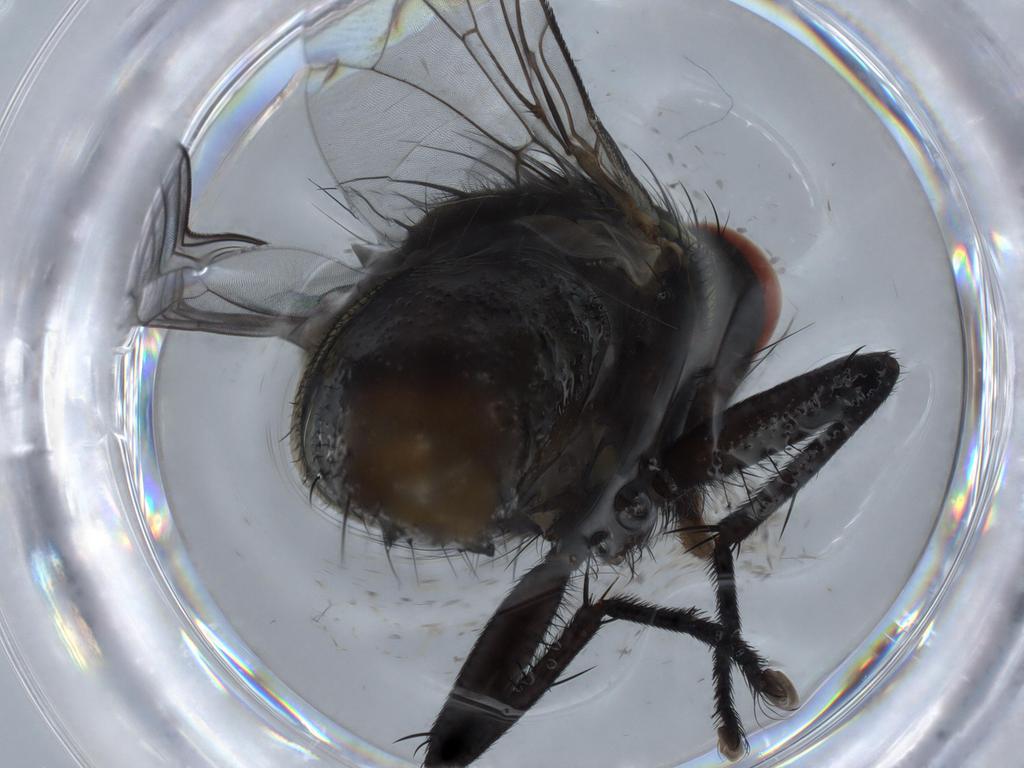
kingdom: Animalia
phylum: Arthropoda
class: Insecta
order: Diptera
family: Sarcophagidae
